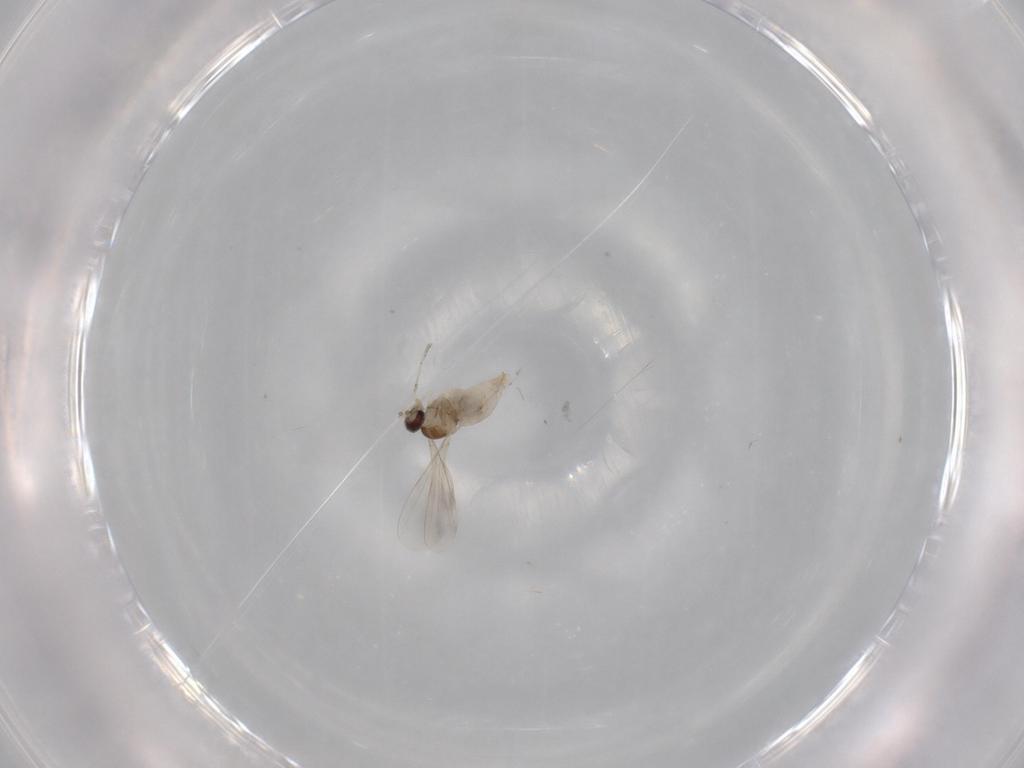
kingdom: Animalia
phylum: Arthropoda
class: Insecta
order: Diptera
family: Cecidomyiidae
